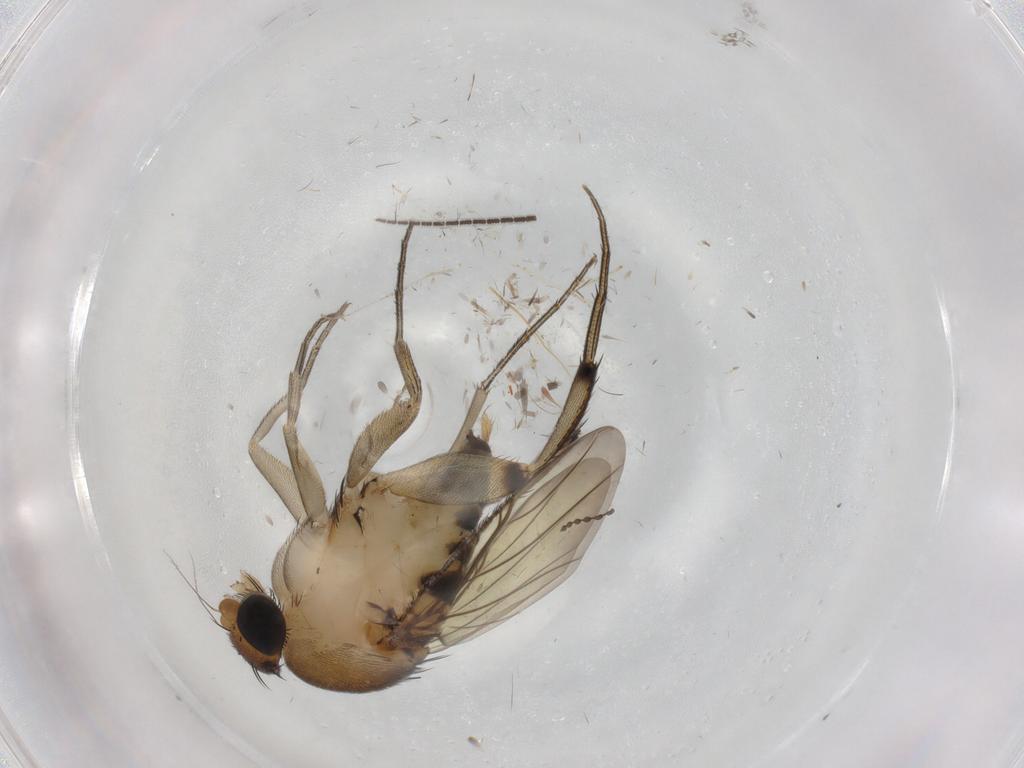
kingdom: Animalia
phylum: Arthropoda
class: Insecta
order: Diptera
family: Phoridae
